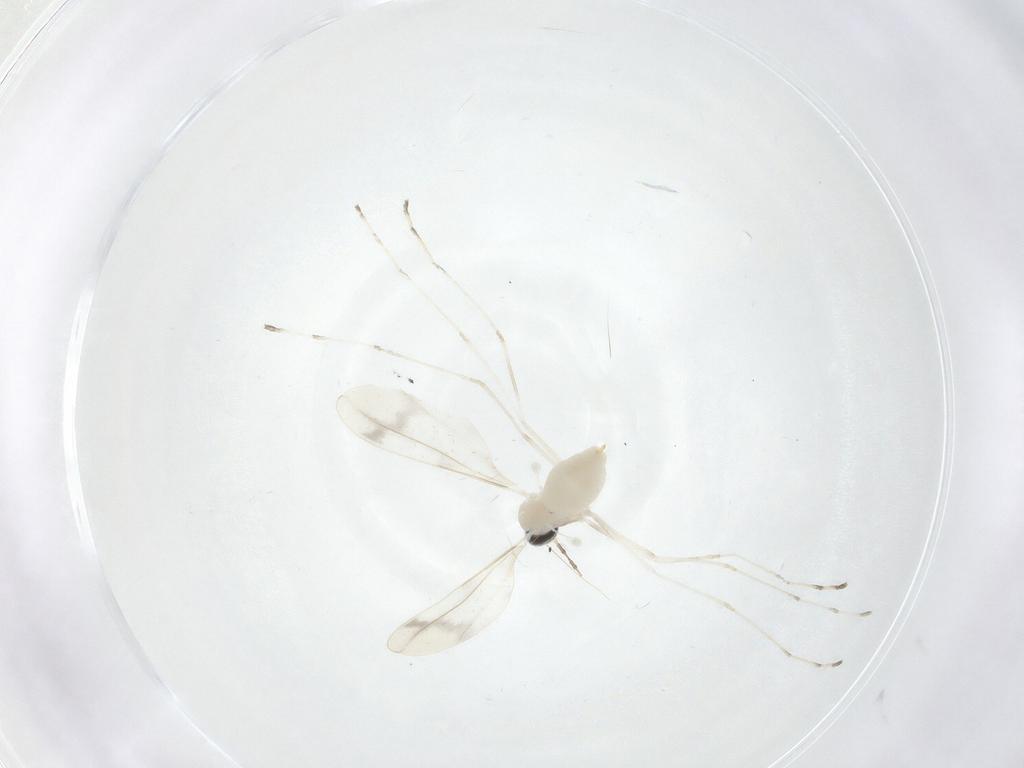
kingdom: Animalia
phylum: Arthropoda
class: Insecta
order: Diptera
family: Cecidomyiidae
